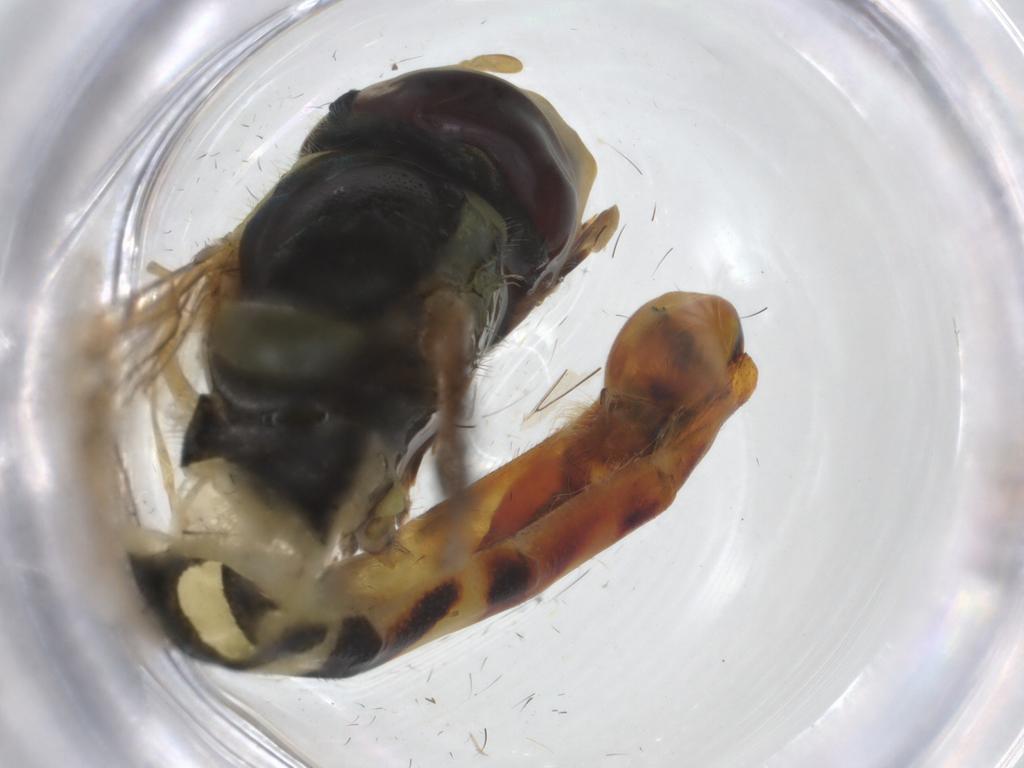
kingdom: Animalia
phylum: Arthropoda
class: Insecta
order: Diptera
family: Syrphidae
